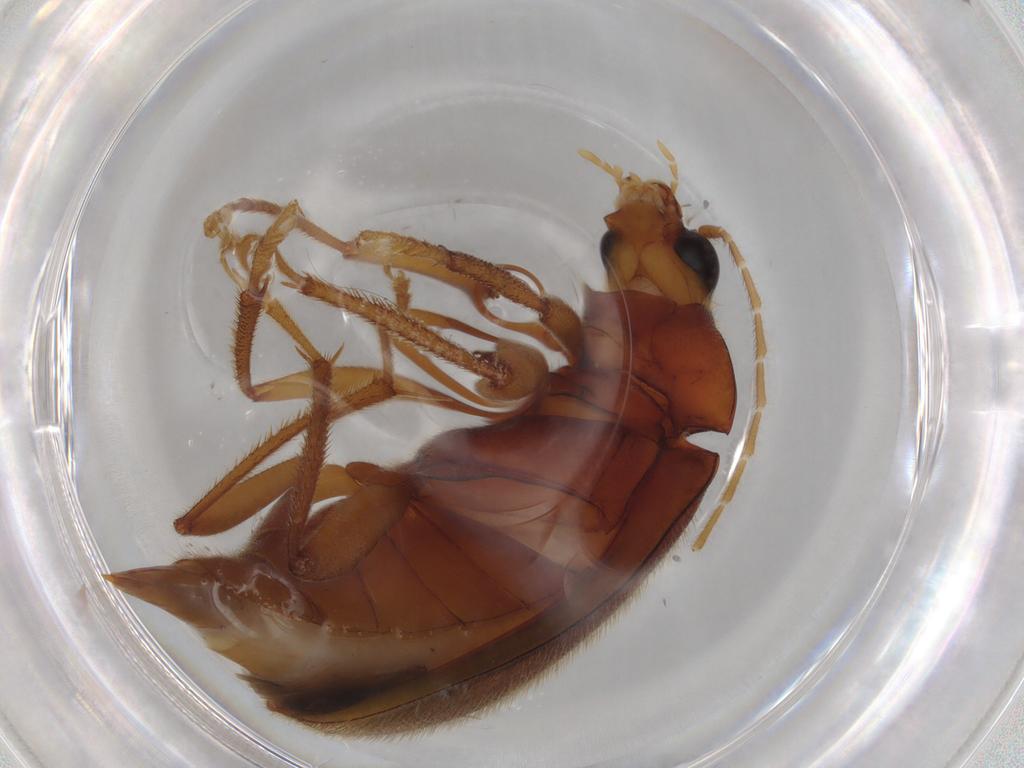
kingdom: Animalia
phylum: Arthropoda
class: Insecta
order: Coleoptera
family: Ptilodactylidae
